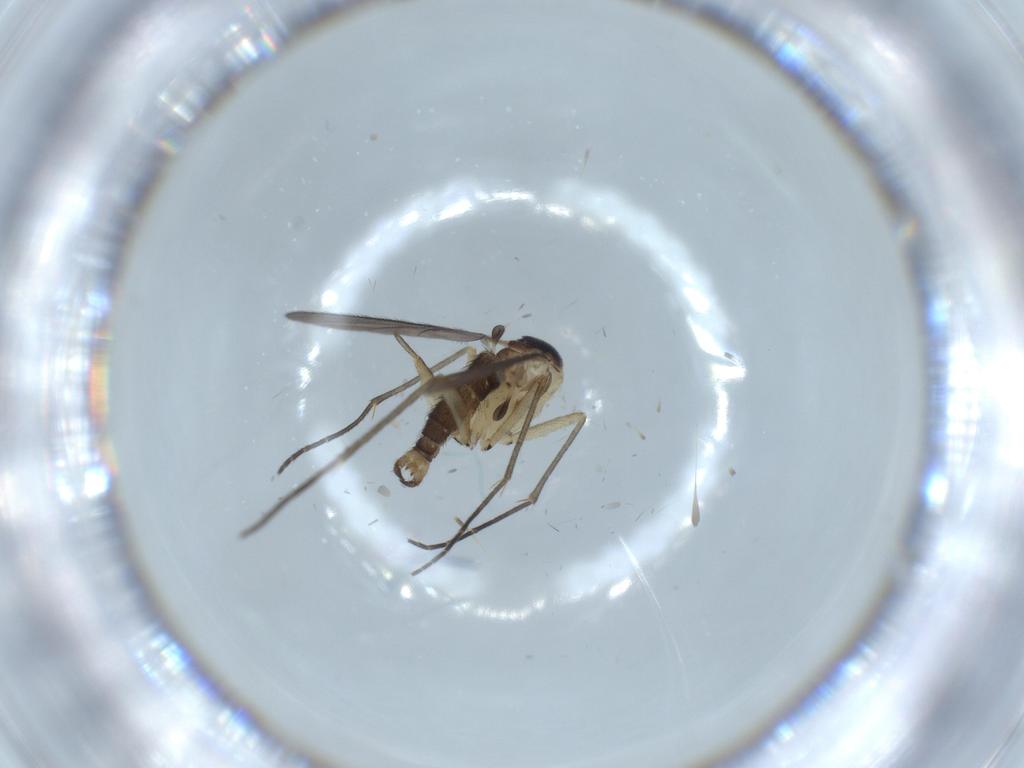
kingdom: Animalia
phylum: Arthropoda
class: Insecta
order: Diptera
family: Sciaridae
